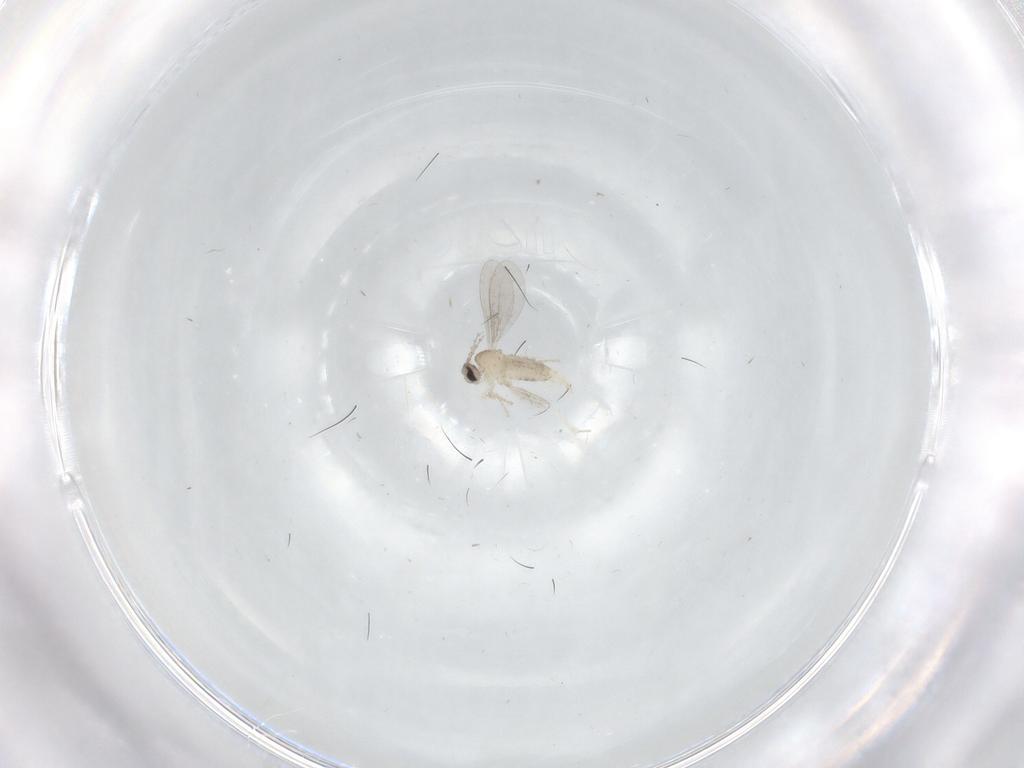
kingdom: Animalia
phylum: Arthropoda
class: Insecta
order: Diptera
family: Cecidomyiidae
